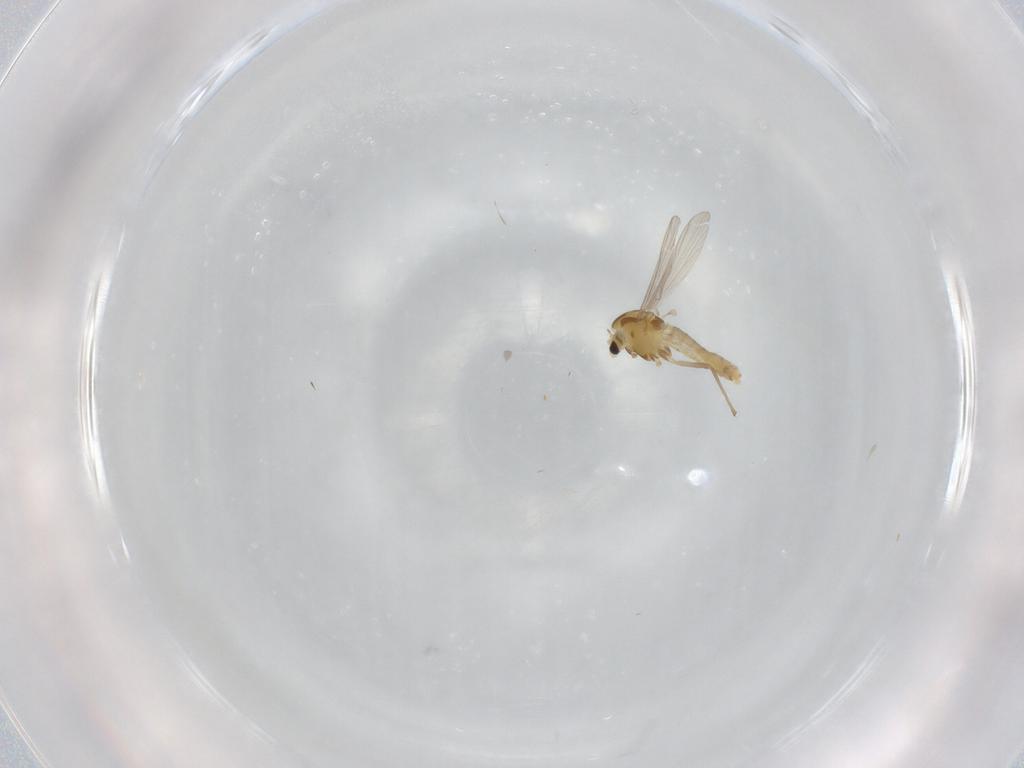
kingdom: Animalia
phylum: Arthropoda
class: Insecta
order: Diptera
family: Chironomidae
